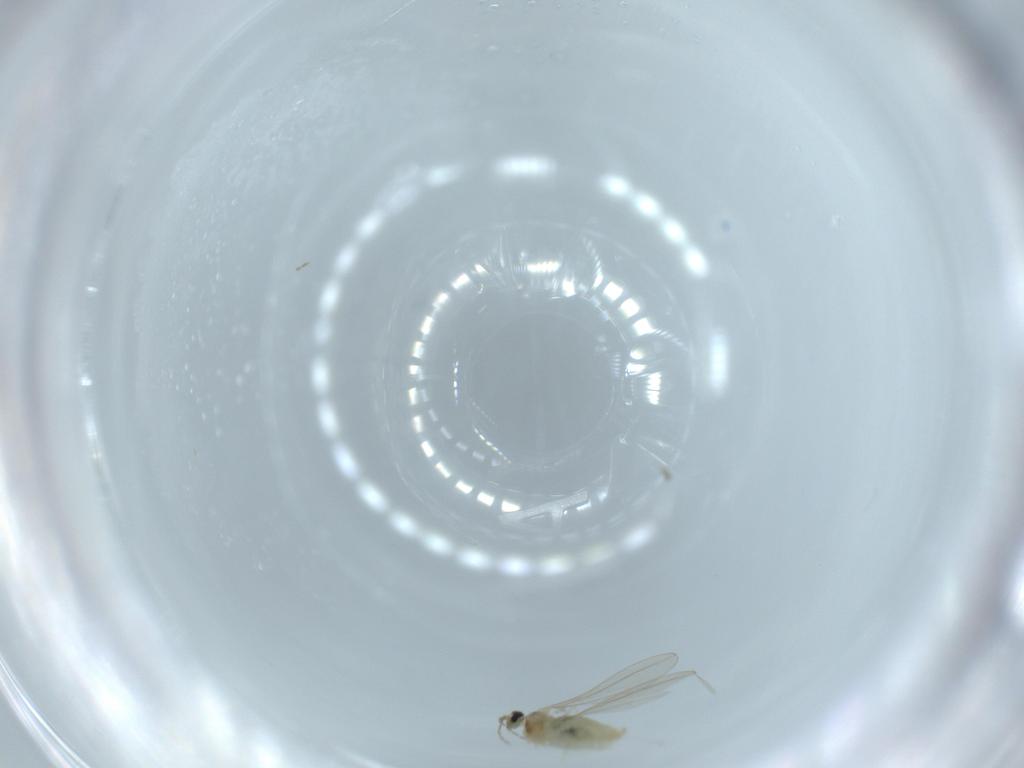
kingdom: Animalia
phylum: Arthropoda
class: Insecta
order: Diptera
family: Cecidomyiidae
